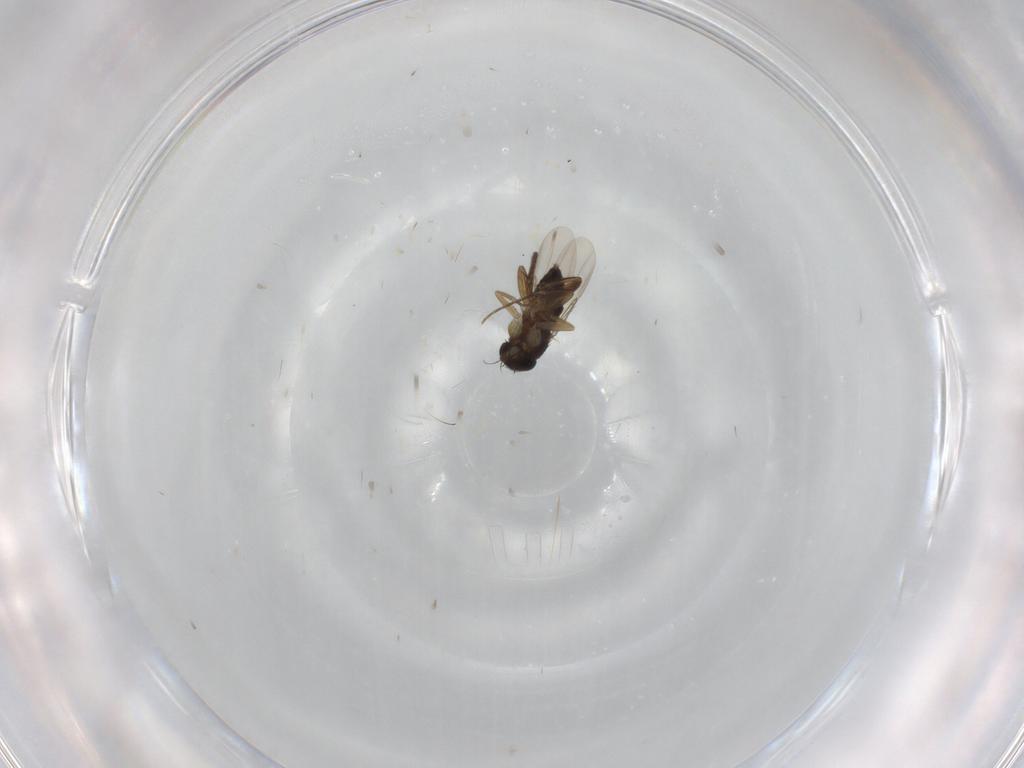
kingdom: Animalia
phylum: Arthropoda
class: Insecta
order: Diptera
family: Phoridae
